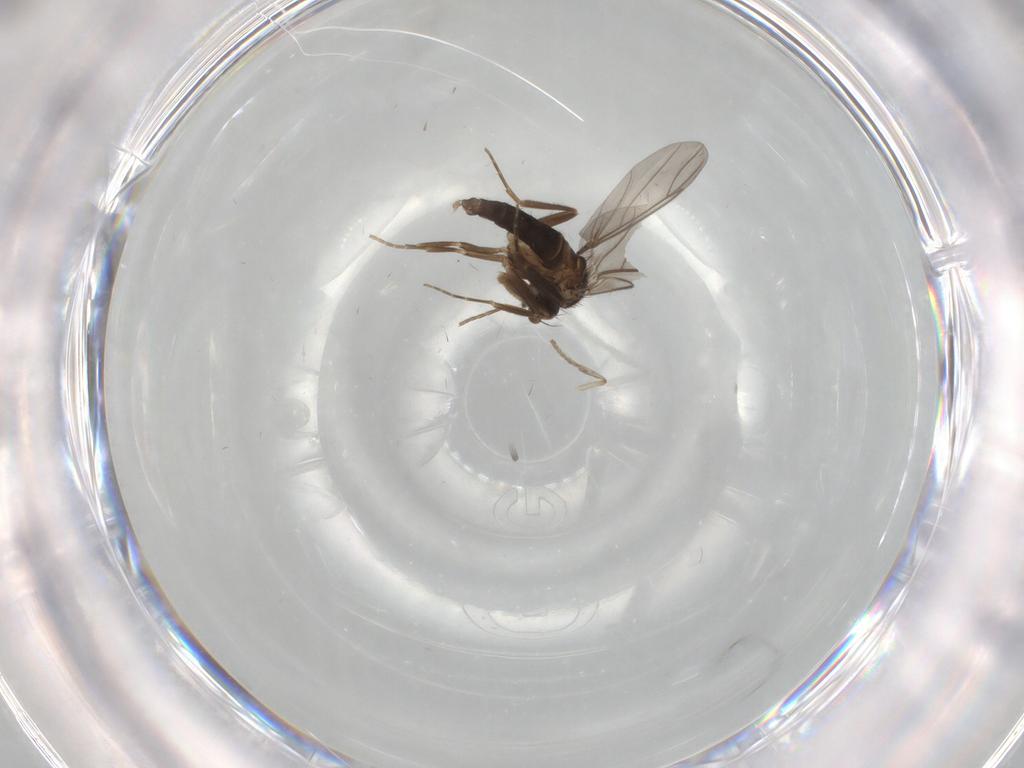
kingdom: Animalia
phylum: Arthropoda
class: Insecta
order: Diptera
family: Psychodidae
